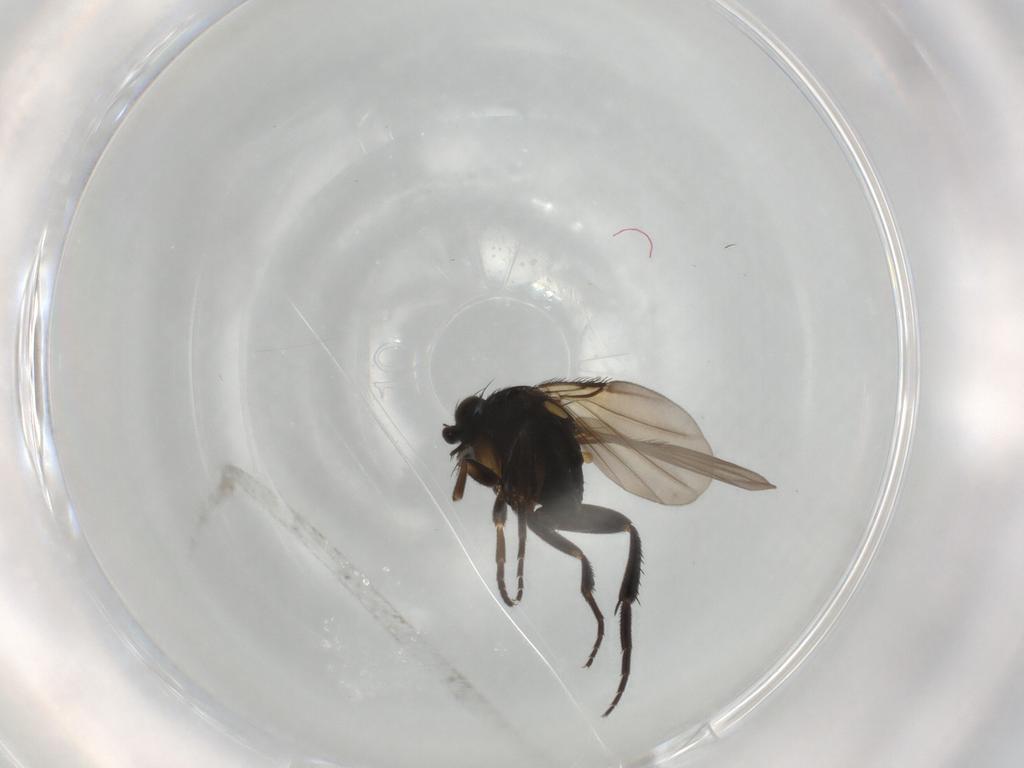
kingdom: Animalia
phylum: Arthropoda
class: Insecta
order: Diptera
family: Phoridae
